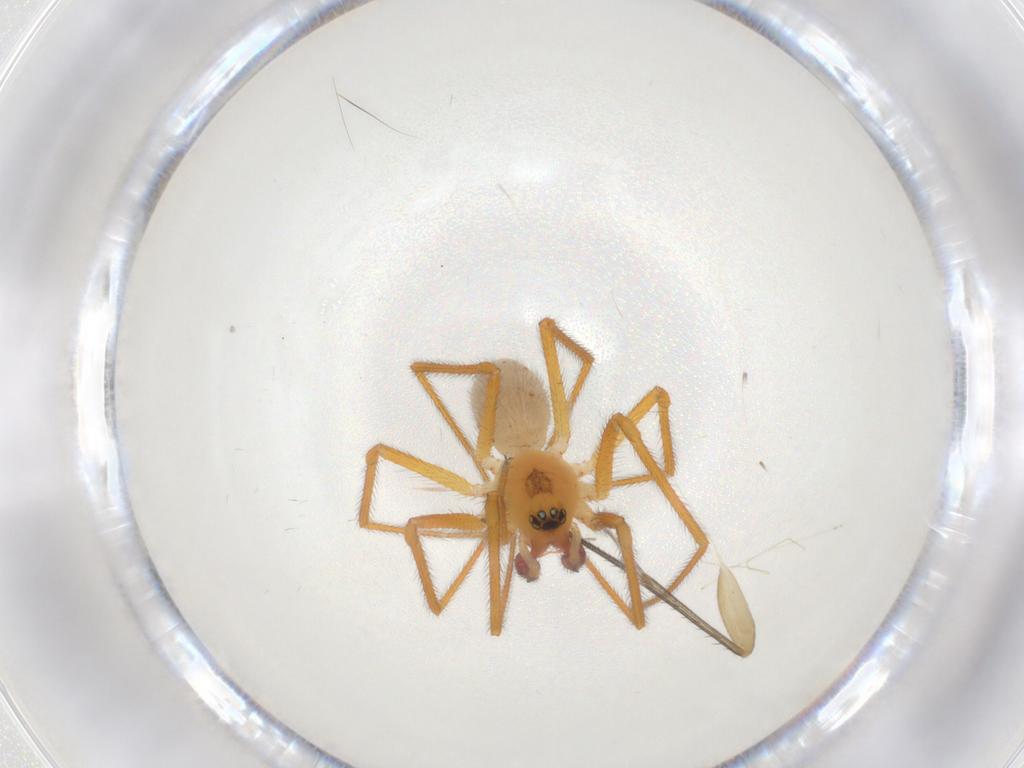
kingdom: Animalia
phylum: Arthropoda
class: Arachnida
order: Araneae
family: Linyphiidae
